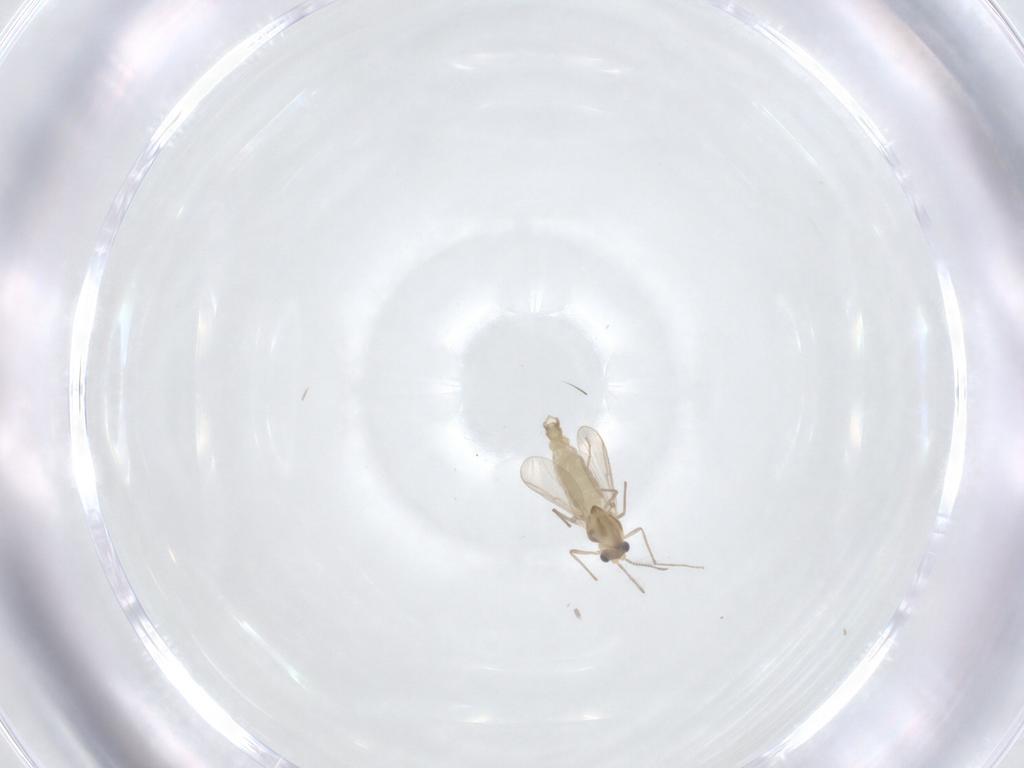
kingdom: Animalia
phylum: Arthropoda
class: Insecta
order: Diptera
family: Chironomidae
